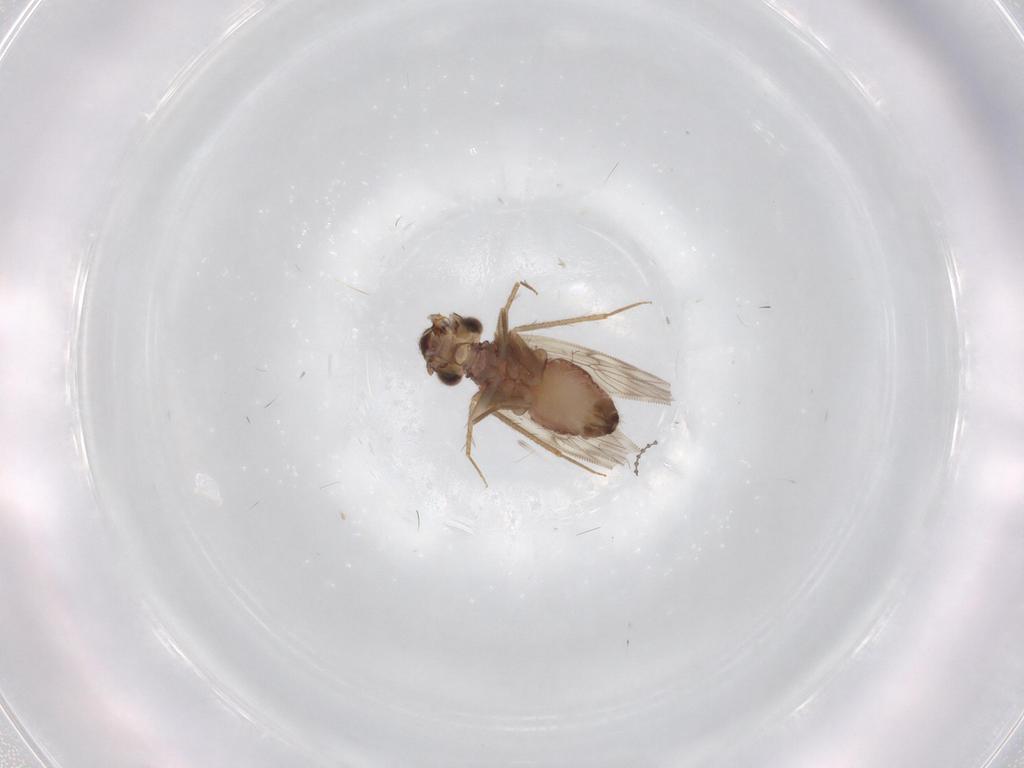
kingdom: Animalia
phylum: Arthropoda
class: Insecta
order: Psocodea
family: Lepidopsocidae
